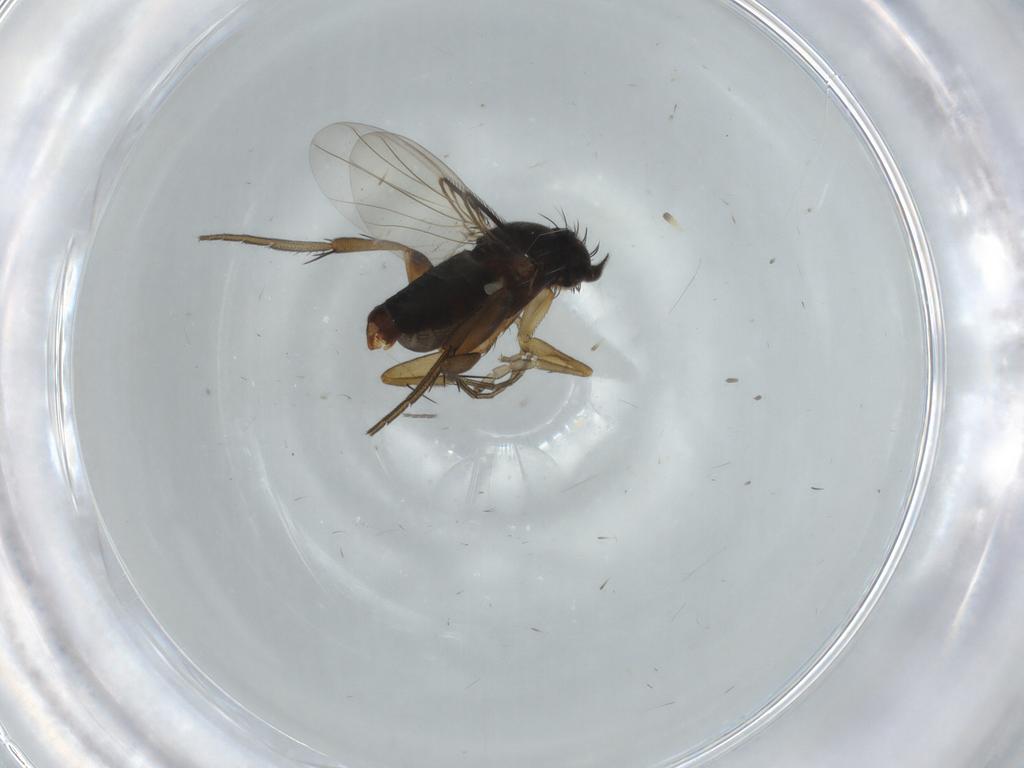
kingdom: Animalia
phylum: Arthropoda
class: Insecta
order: Diptera
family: Phoridae
